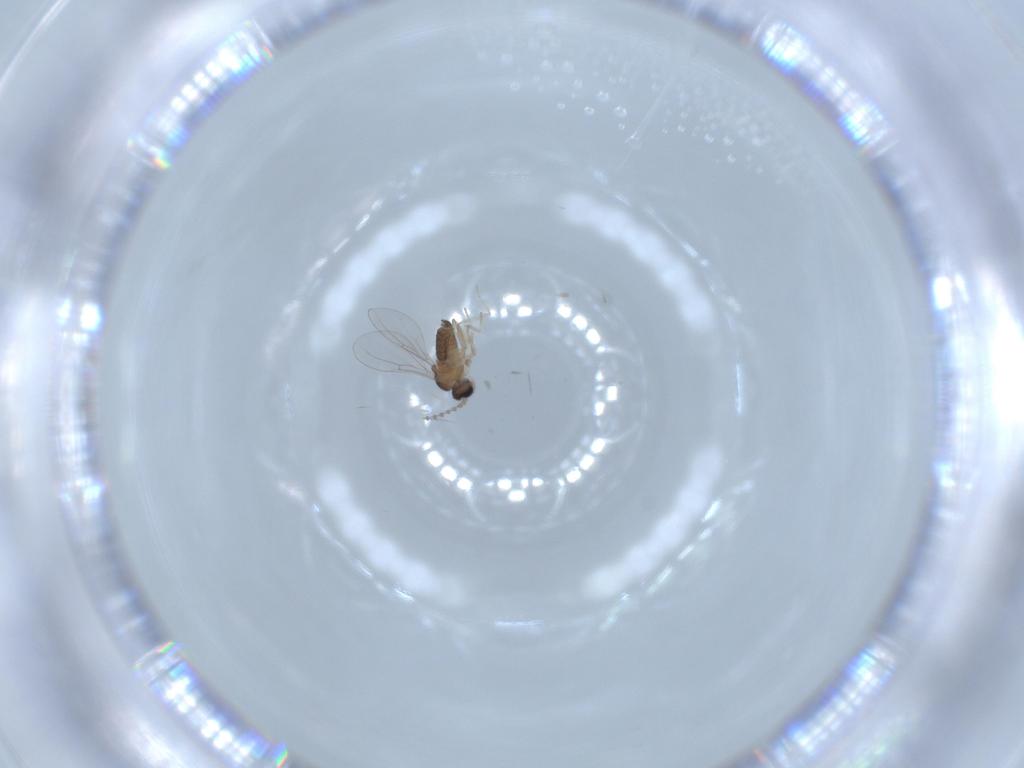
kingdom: Animalia
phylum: Arthropoda
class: Insecta
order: Diptera
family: Cecidomyiidae
